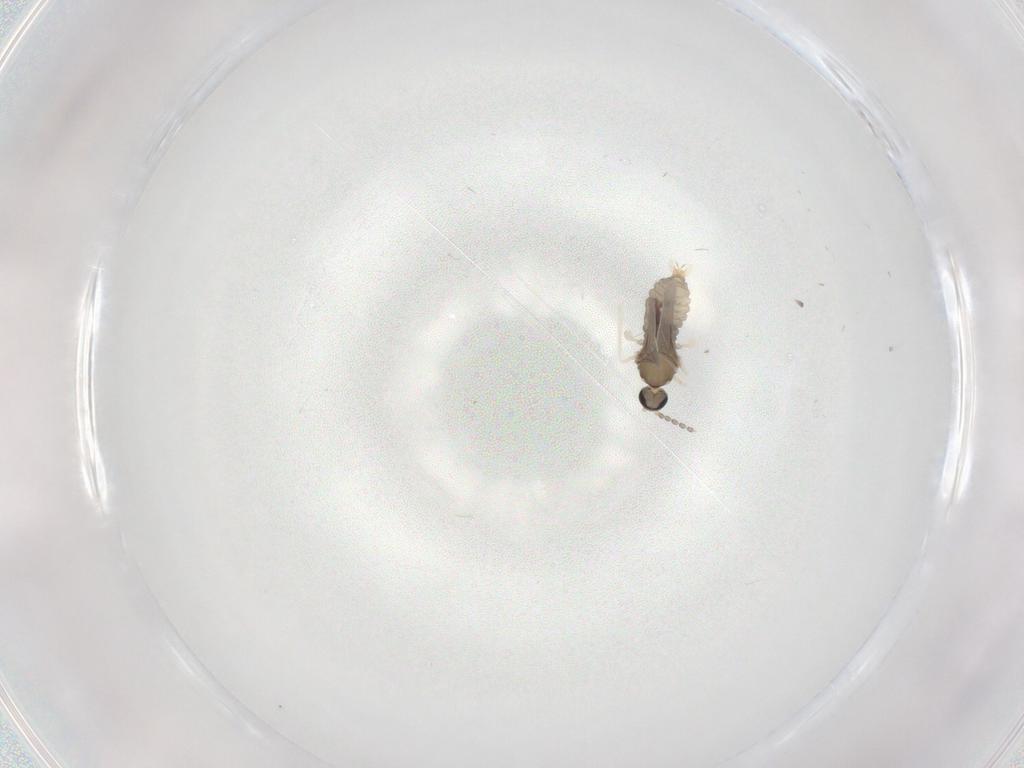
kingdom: Animalia
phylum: Arthropoda
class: Insecta
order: Diptera
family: Cecidomyiidae
